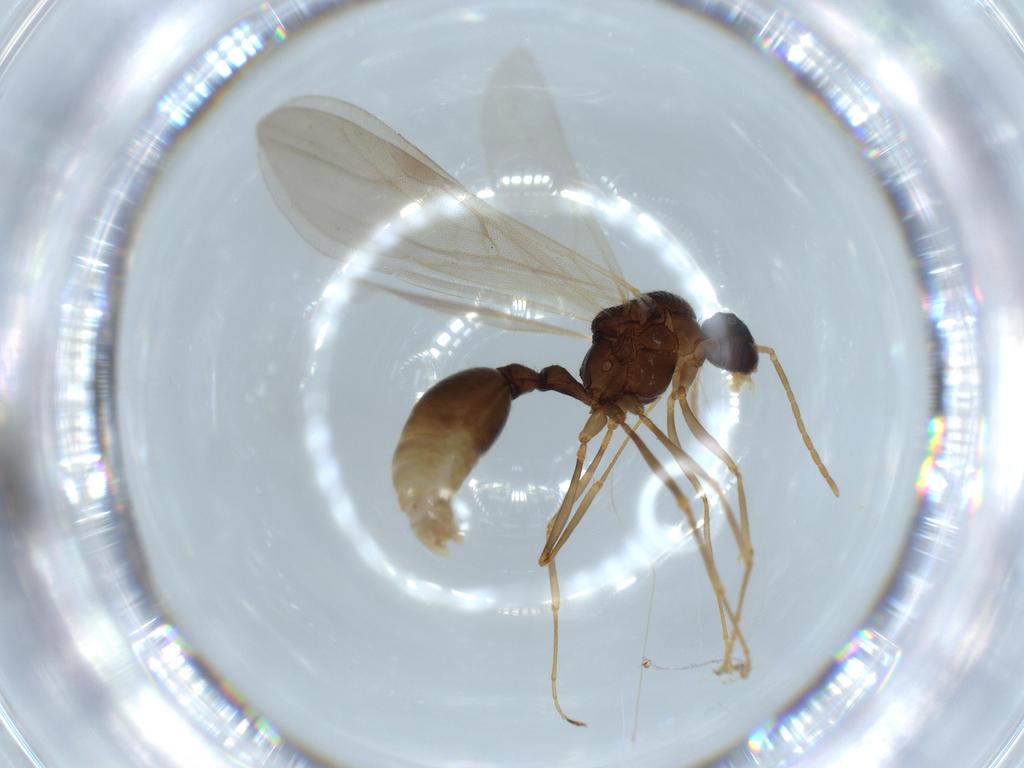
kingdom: Animalia
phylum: Arthropoda
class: Insecta
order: Hymenoptera
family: Formicidae
